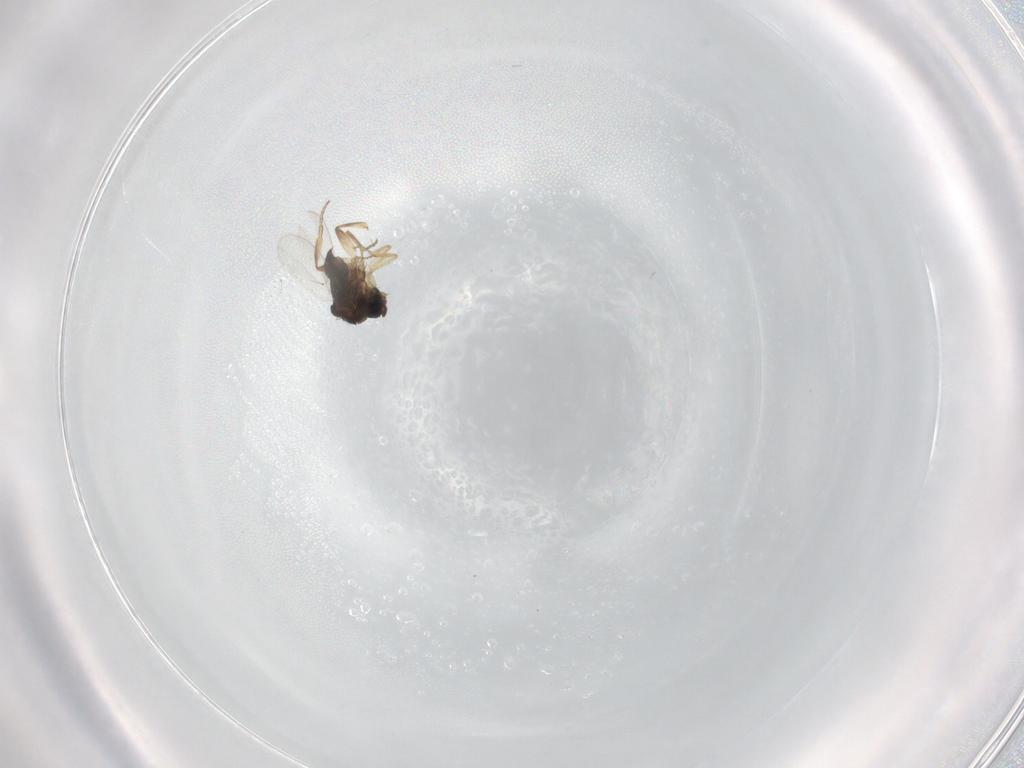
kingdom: Animalia
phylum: Arthropoda
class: Insecta
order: Diptera
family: Phoridae
